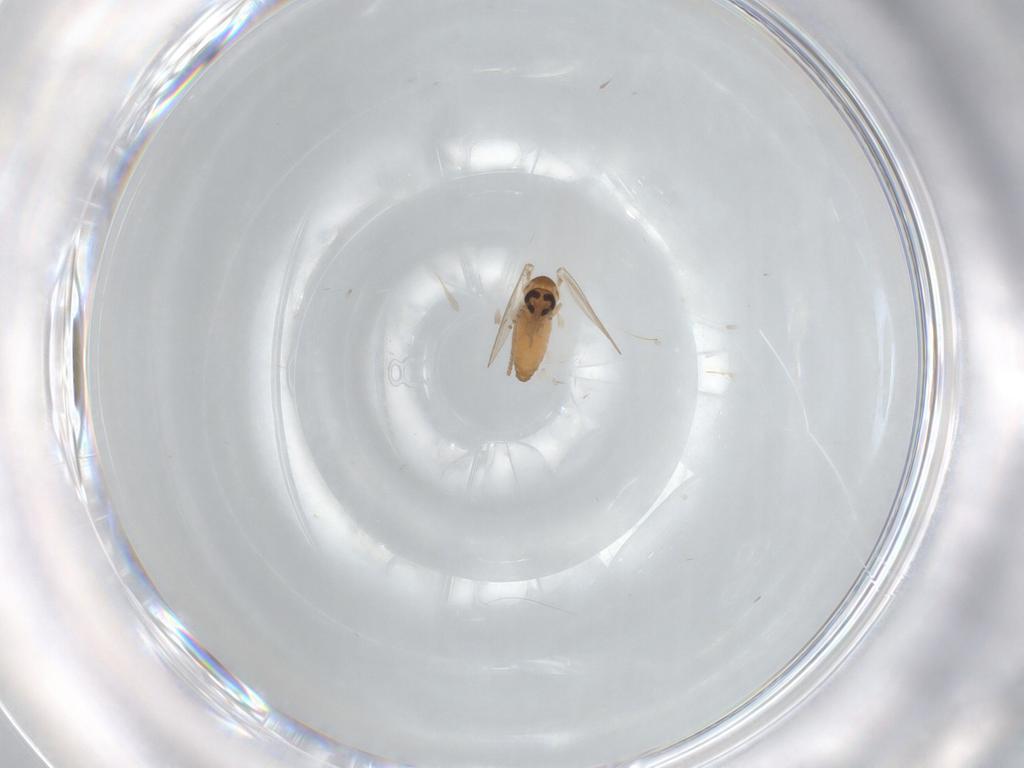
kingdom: Animalia
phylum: Arthropoda
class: Insecta
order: Diptera
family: Psychodidae
